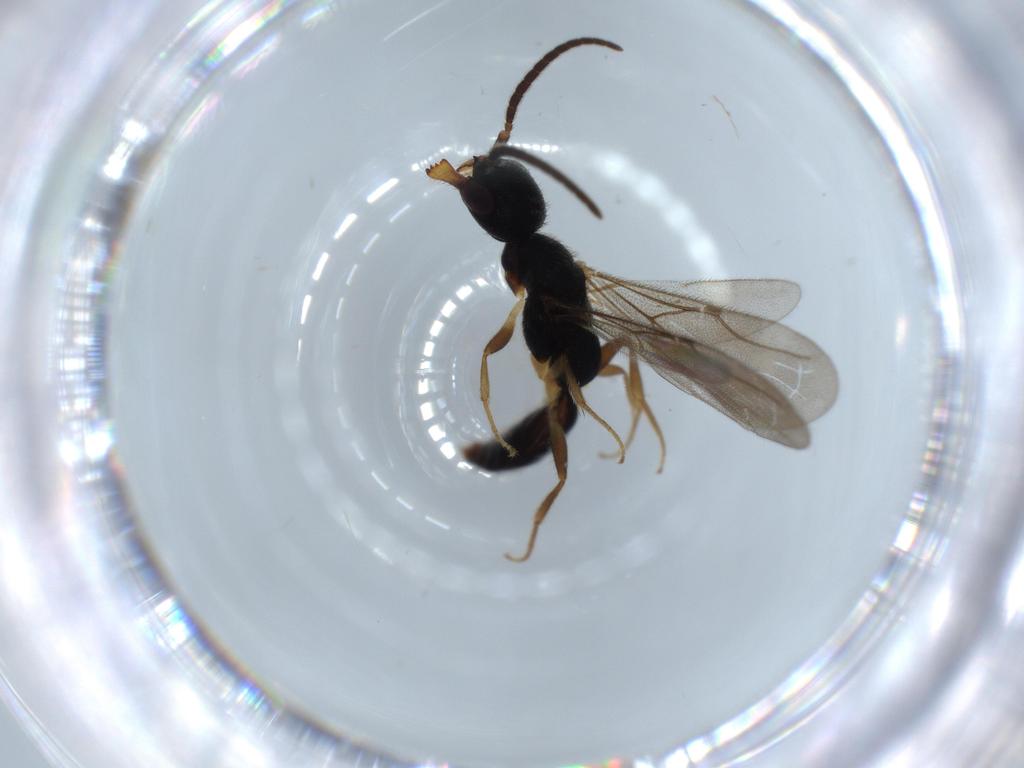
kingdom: Animalia
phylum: Arthropoda
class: Insecta
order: Hymenoptera
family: Bethylidae
